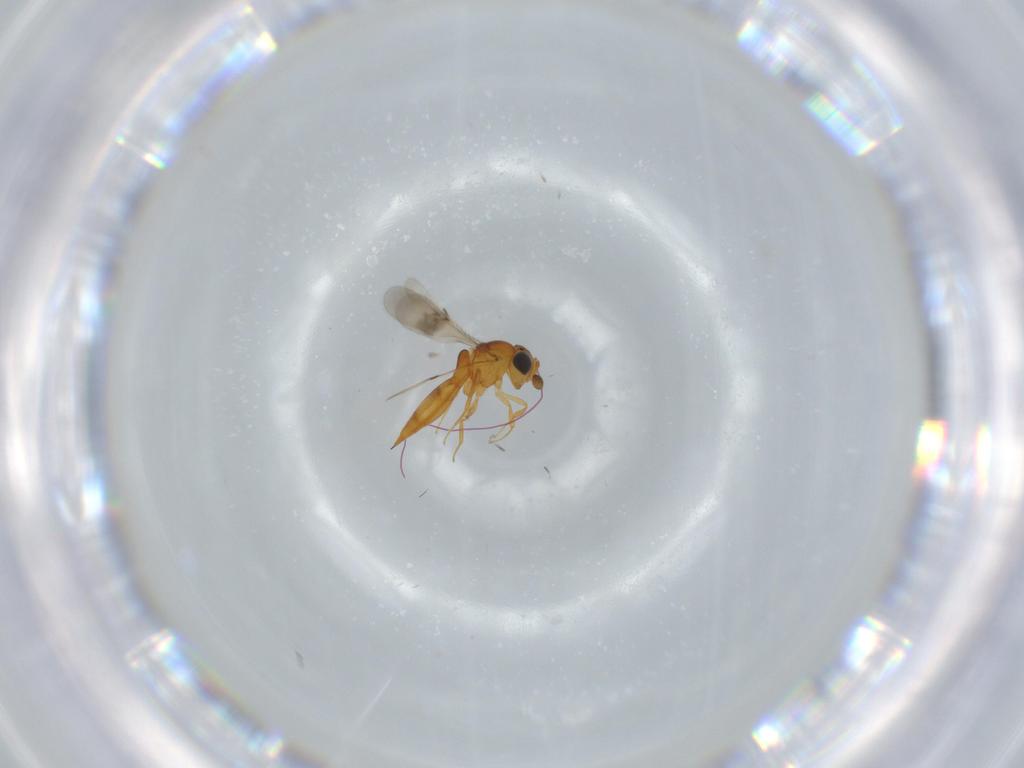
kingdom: Animalia
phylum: Arthropoda
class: Insecta
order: Hymenoptera
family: Scelionidae
